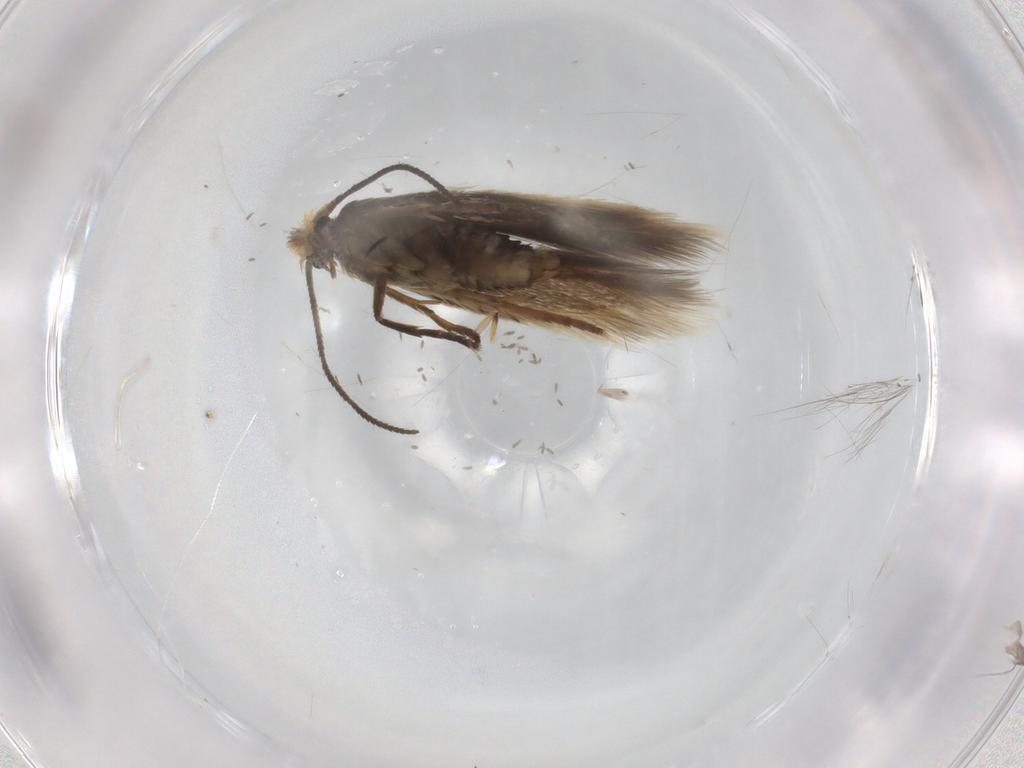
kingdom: Animalia
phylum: Arthropoda
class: Insecta
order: Lepidoptera
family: Nepticulidae
